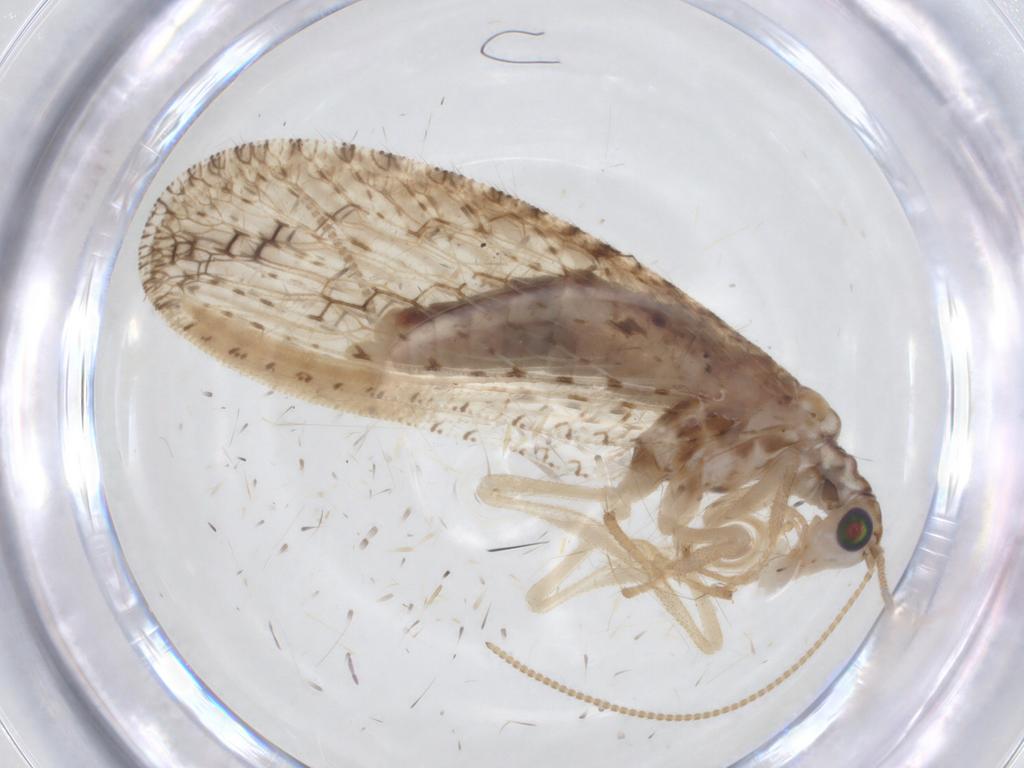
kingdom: Animalia
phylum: Arthropoda
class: Insecta
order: Neuroptera
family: Hemerobiidae
